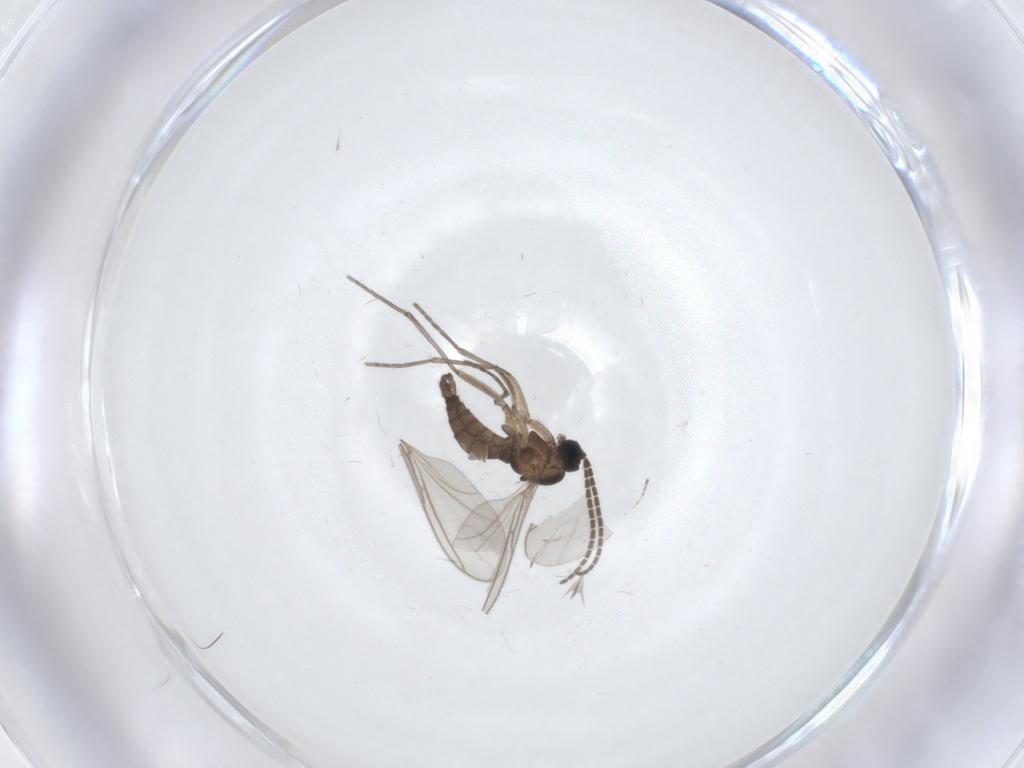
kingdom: Animalia
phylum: Arthropoda
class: Insecta
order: Diptera
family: Sciaridae
